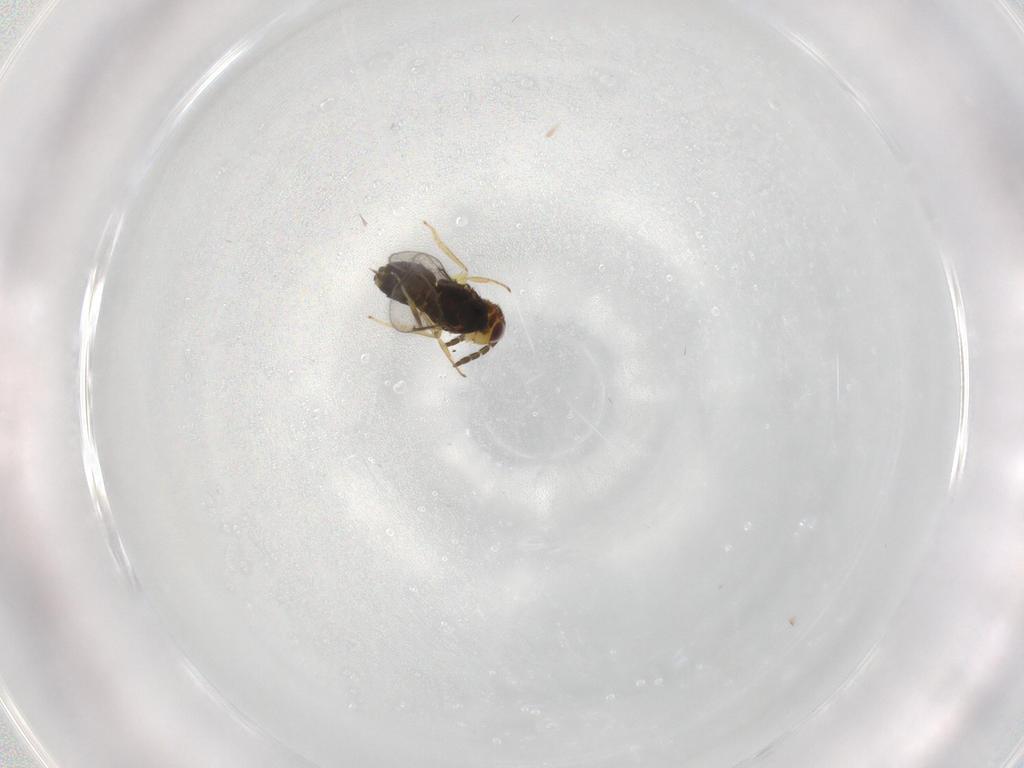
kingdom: Animalia
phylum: Arthropoda
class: Insecta
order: Hymenoptera
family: Aphelinidae
